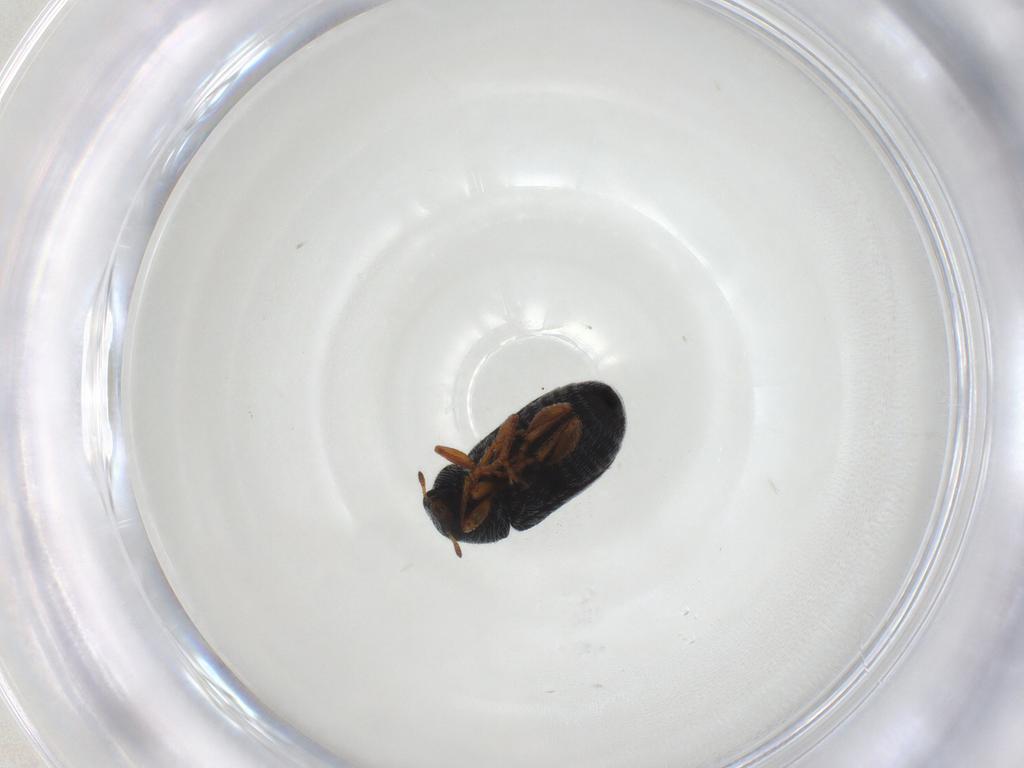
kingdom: Animalia
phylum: Arthropoda
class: Insecta
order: Coleoptera
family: Anthribidae
